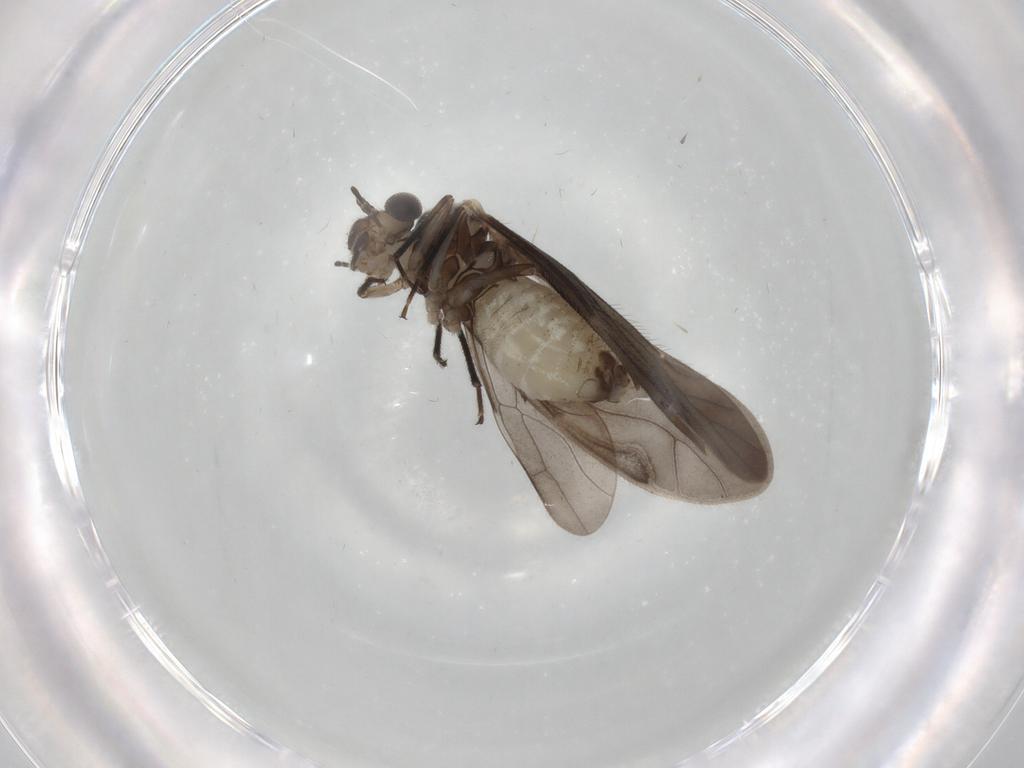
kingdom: Animalia
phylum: Arthropoda
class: Insecta
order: Psocodea
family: Caeciliusidae
